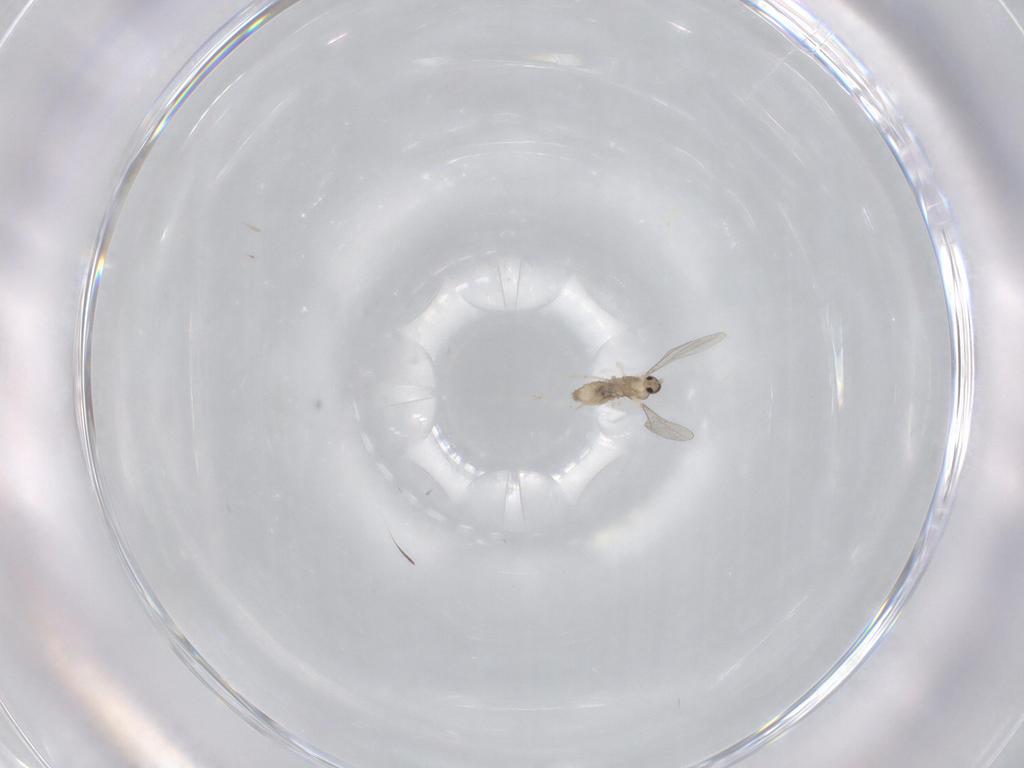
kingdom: Animalia
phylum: Arthropoda
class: Insecta
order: Diptera
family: Cecidomyiidae
